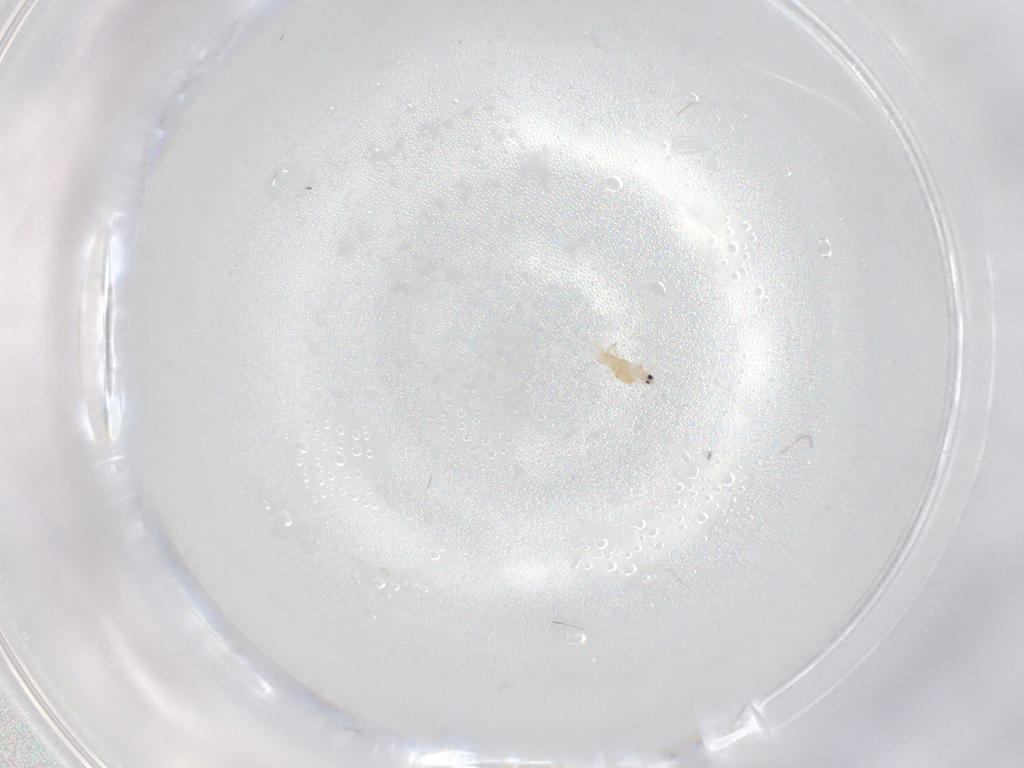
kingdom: Animalia
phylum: Arthropoda
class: Insecta
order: Hemiptera
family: Diaspididae
